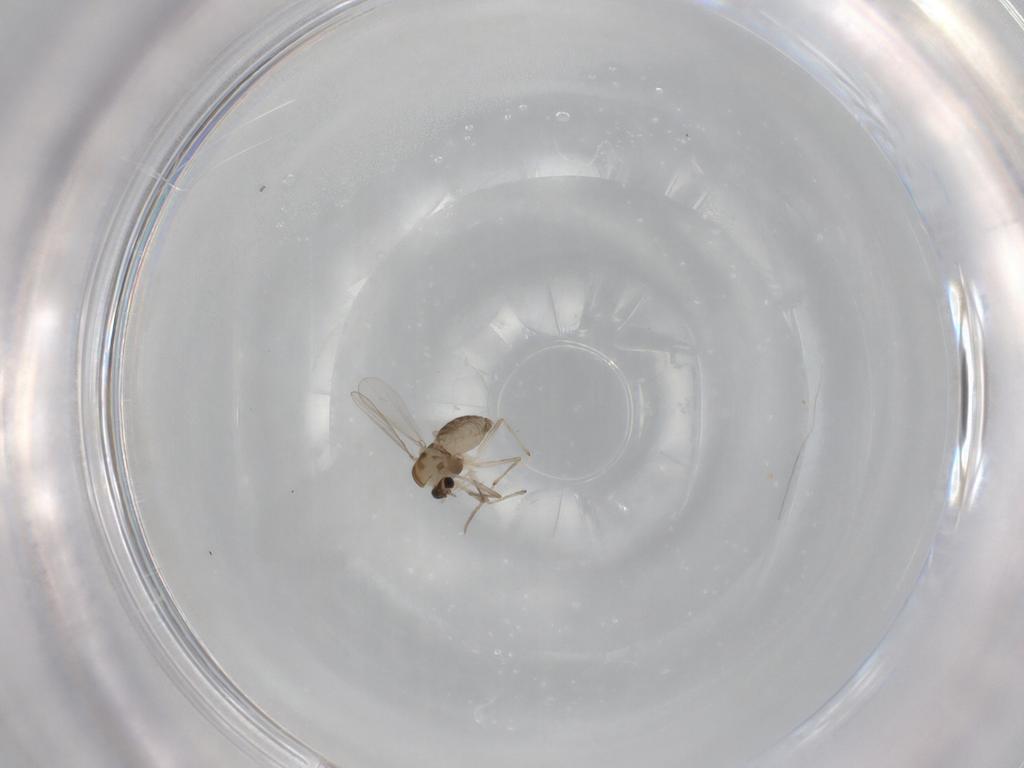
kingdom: Animalia
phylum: Arthropoda
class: Insecta
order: Diptera
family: Chironomidae
